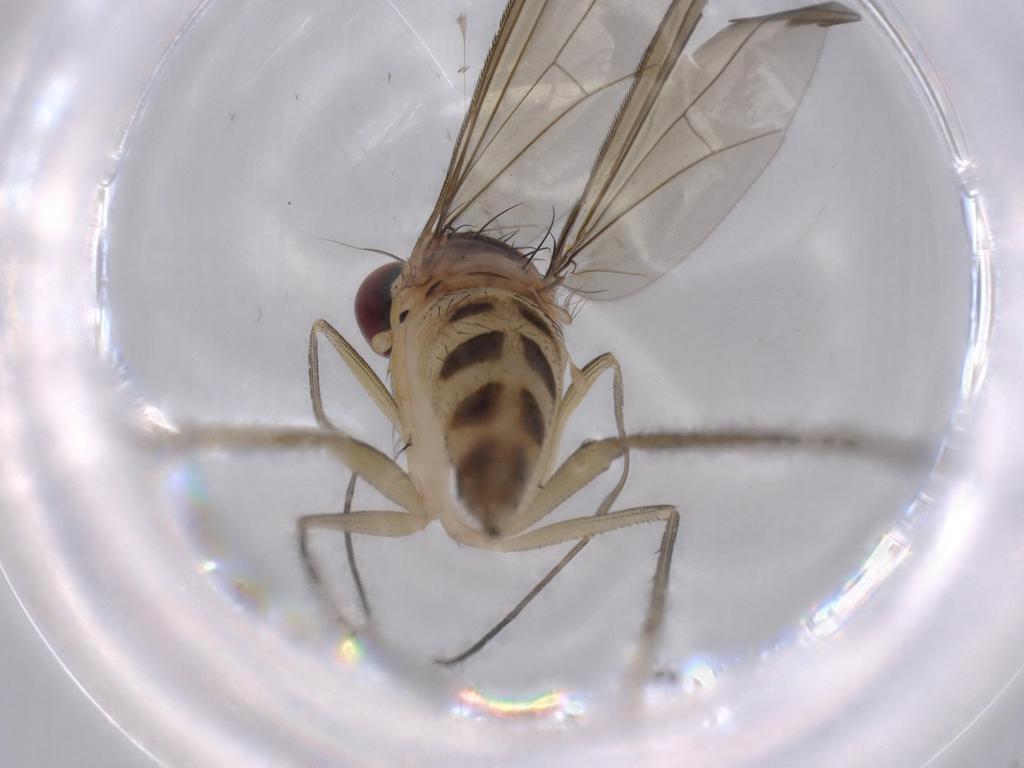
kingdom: Animalia
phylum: Arthropoda
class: Insecta
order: Diptera
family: Dolichopodidae
